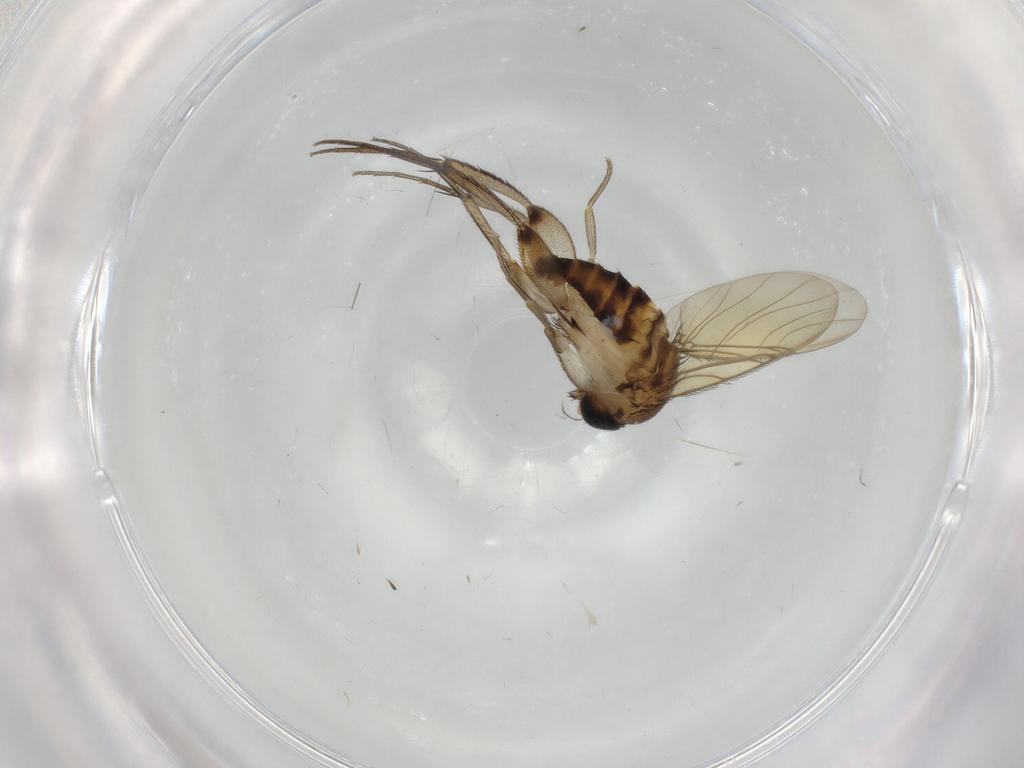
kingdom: Animalia
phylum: Arthropoda
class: Insecta
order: Diptera
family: Phoridae
